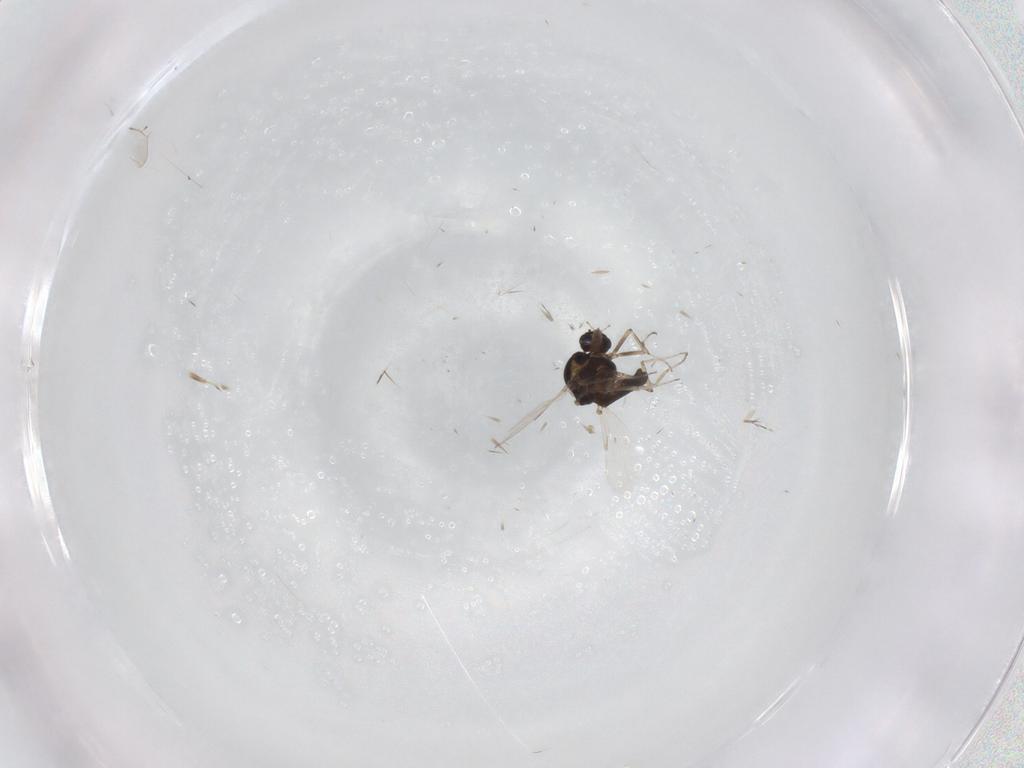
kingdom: Animalia
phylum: Arthropoda
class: Insecta
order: Diptera
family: Ceratopogonidae
